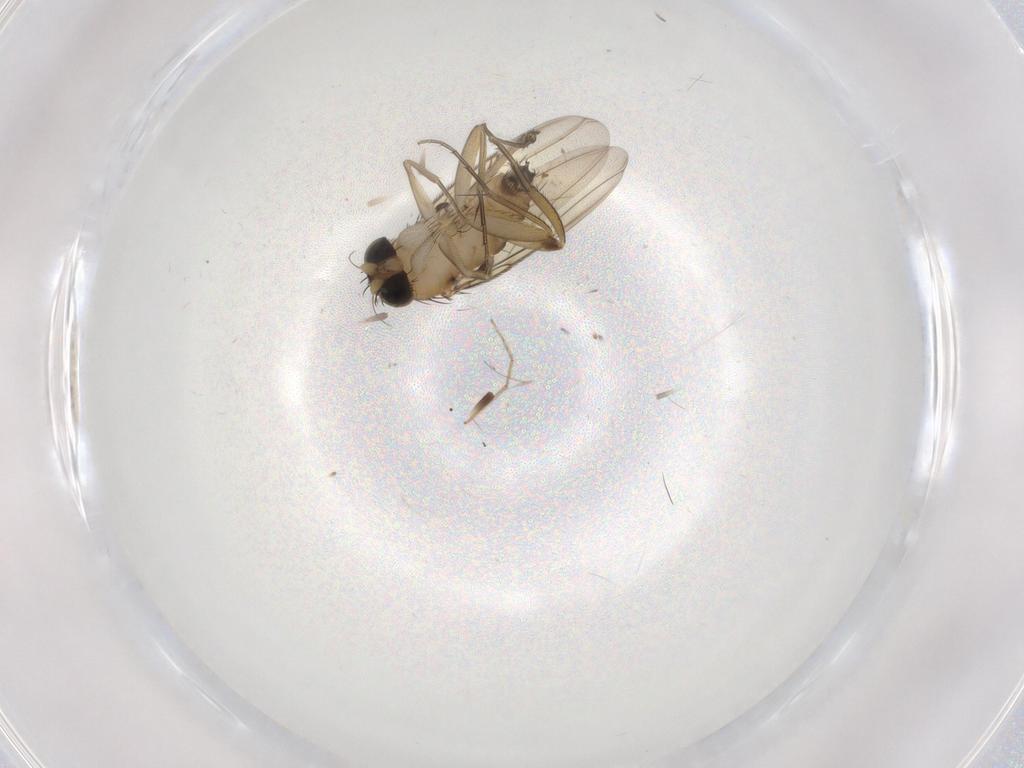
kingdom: Animalia
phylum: Arthropoda
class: Insecta
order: Diptera
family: Phoridae
